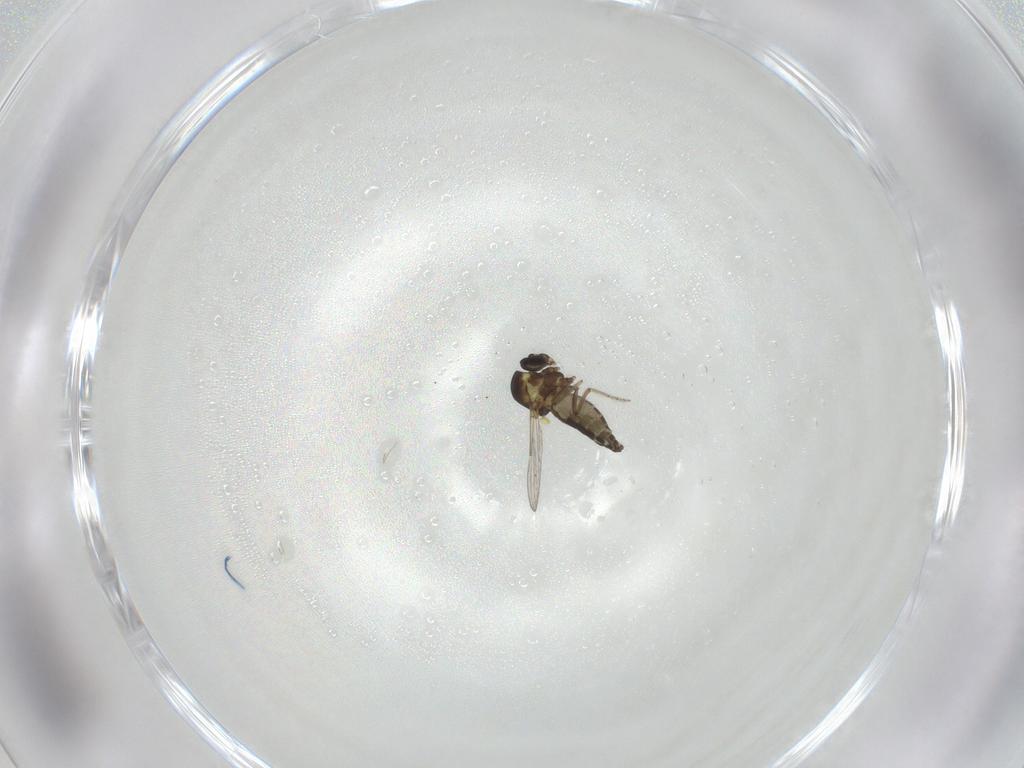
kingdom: Animalia
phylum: Arthropoda
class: Insecta
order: Diptera
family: Ceratopogonidae
